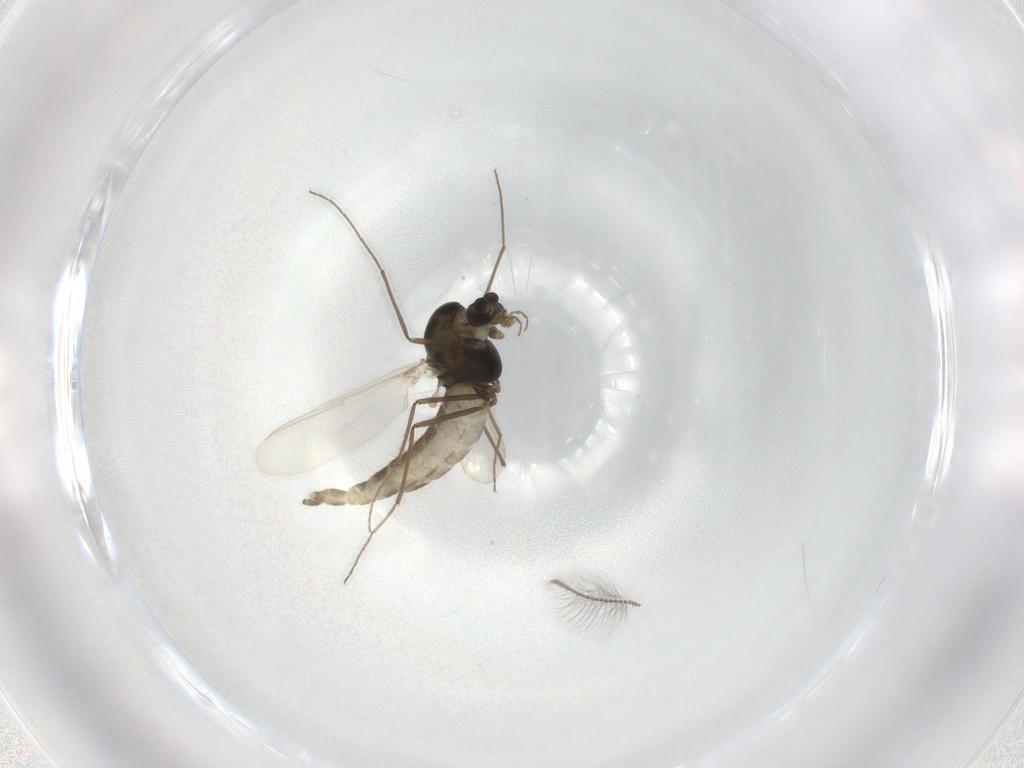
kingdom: Animalia
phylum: Arthropoda
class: Insecta
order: Diptera
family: Chironomidae
